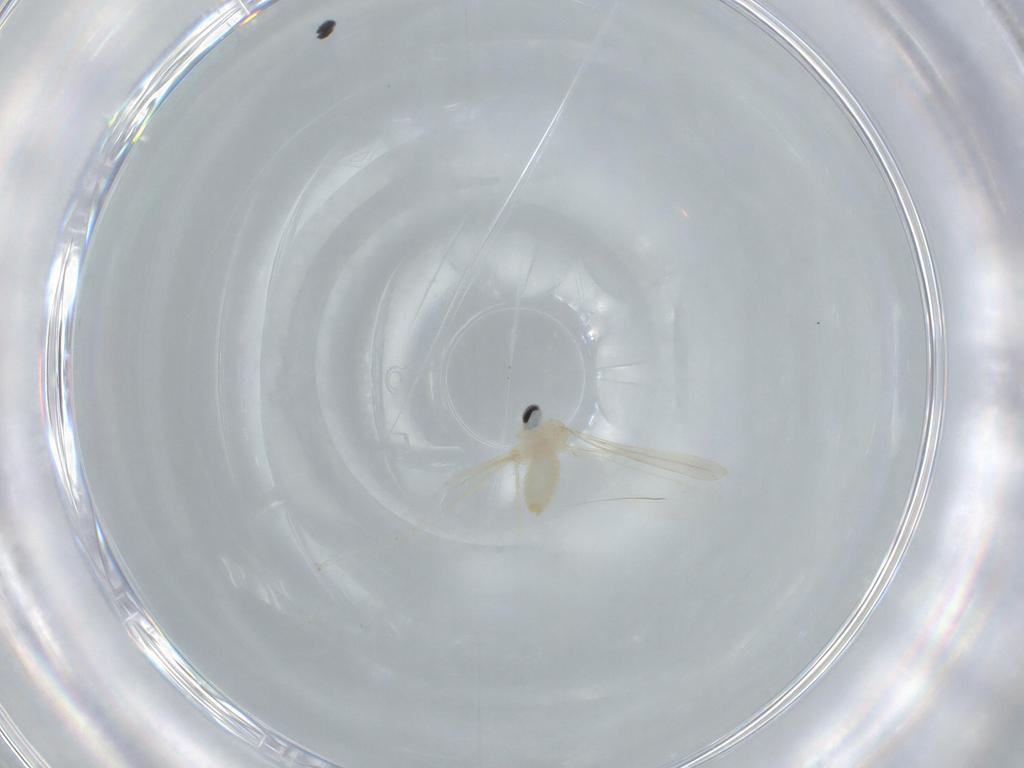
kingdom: Animalia
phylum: Arthropoda
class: Insecta
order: Diptera
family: Cecidomyiidae
